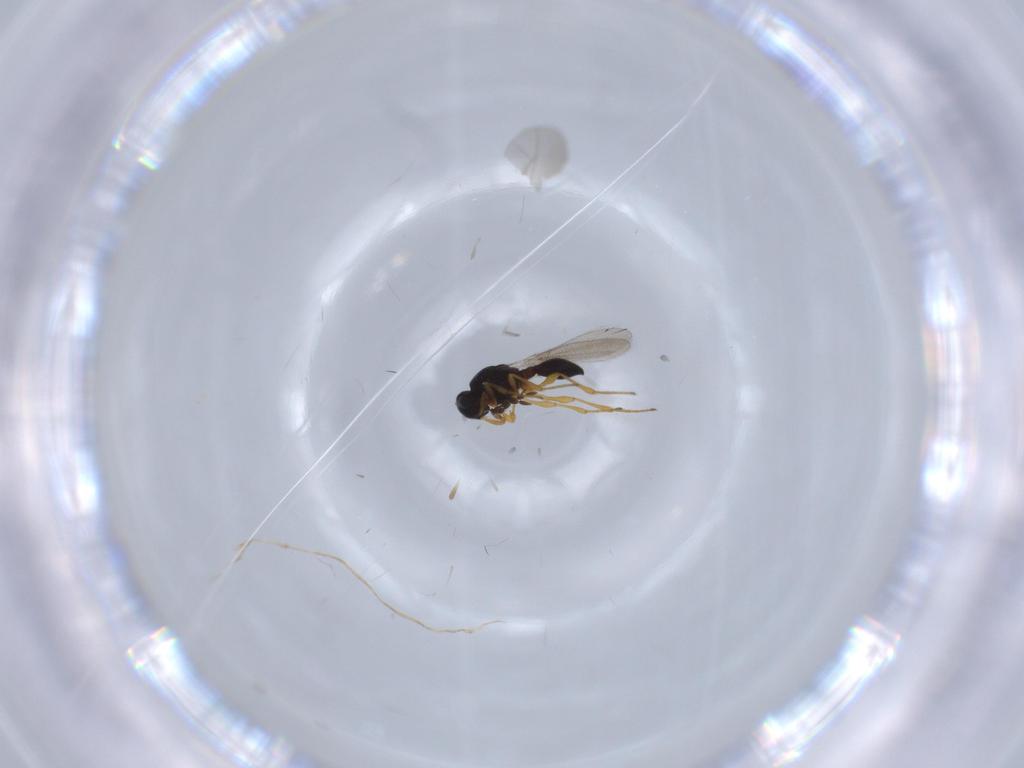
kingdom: Animalia
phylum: Arthropoda
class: Insecta
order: Diptera
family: Mythicomyiidae
